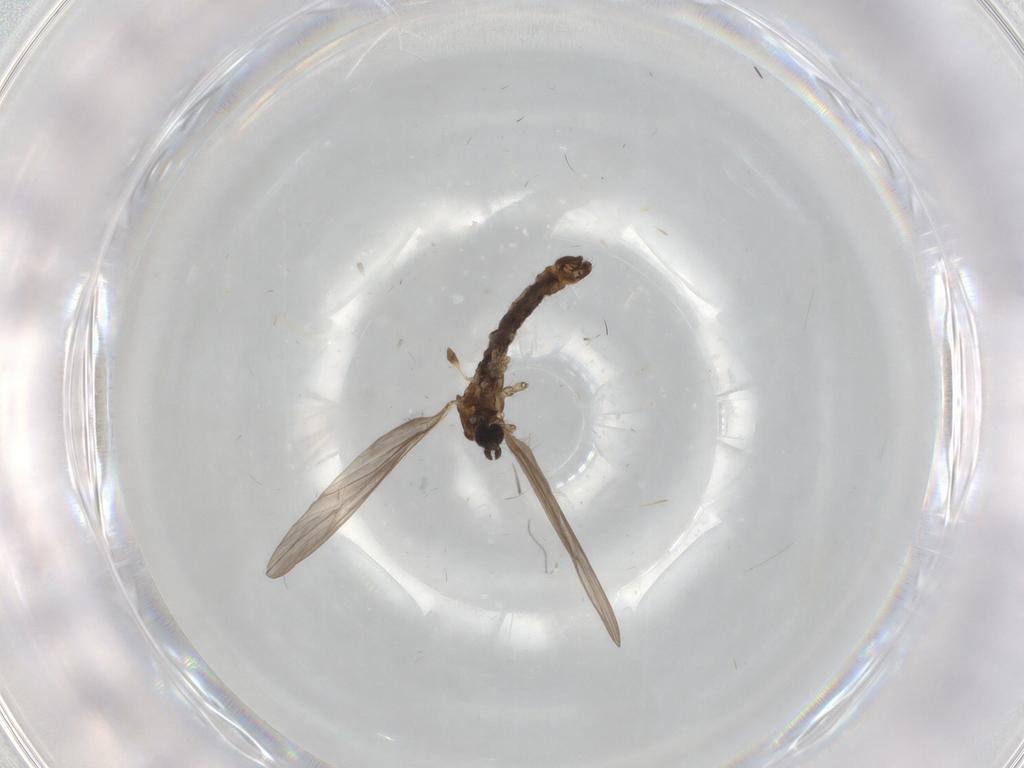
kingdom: Animalia
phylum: Arthropoda
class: Insecta
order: Diptera
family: Limoniidae
